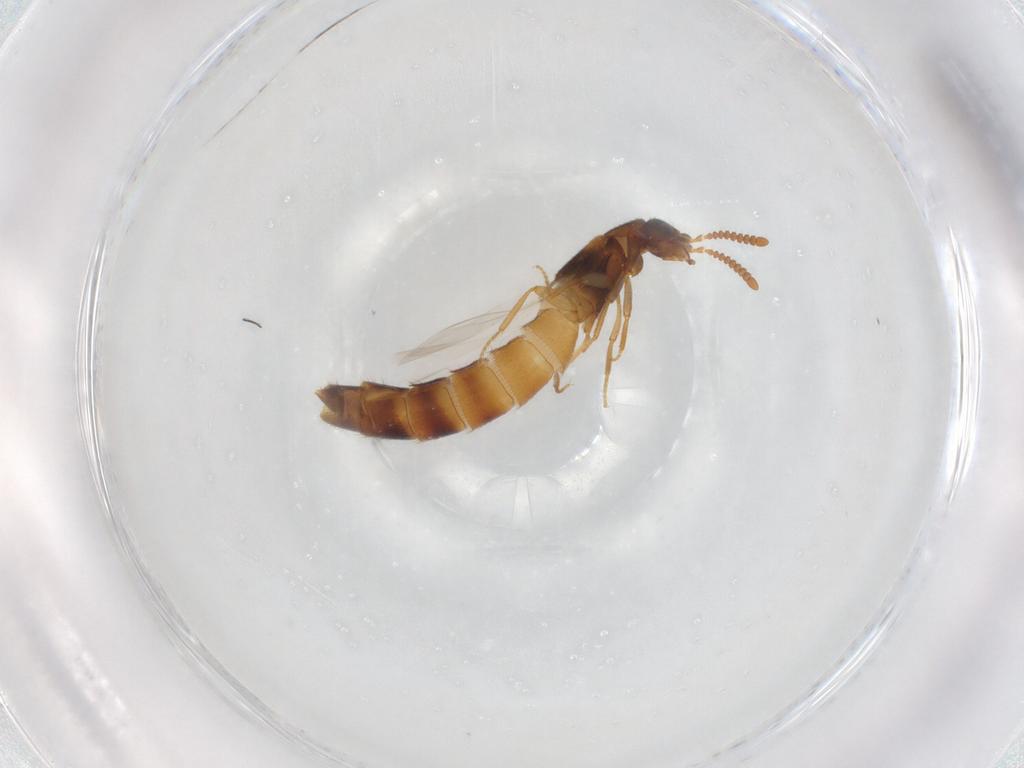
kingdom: Animalia
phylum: Arthropoda
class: Insecta
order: Coleoptera
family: Staphylinidae
